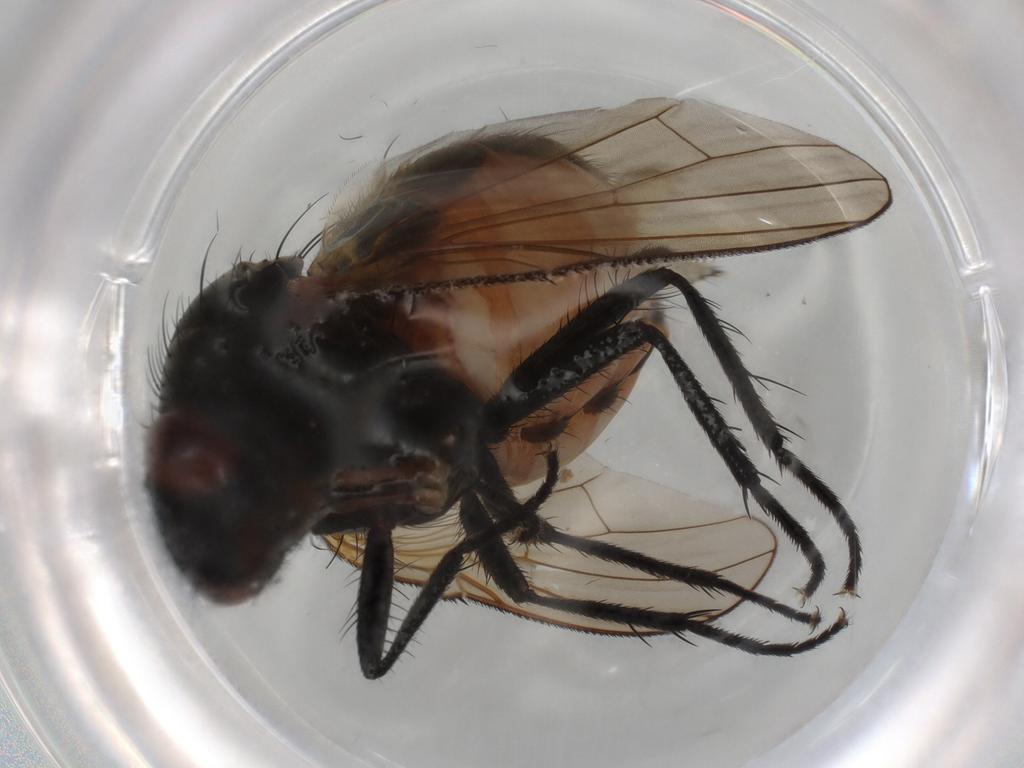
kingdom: Animalia
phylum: Arthropoda
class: Insecta
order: Diptera
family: Anthomyiidae
